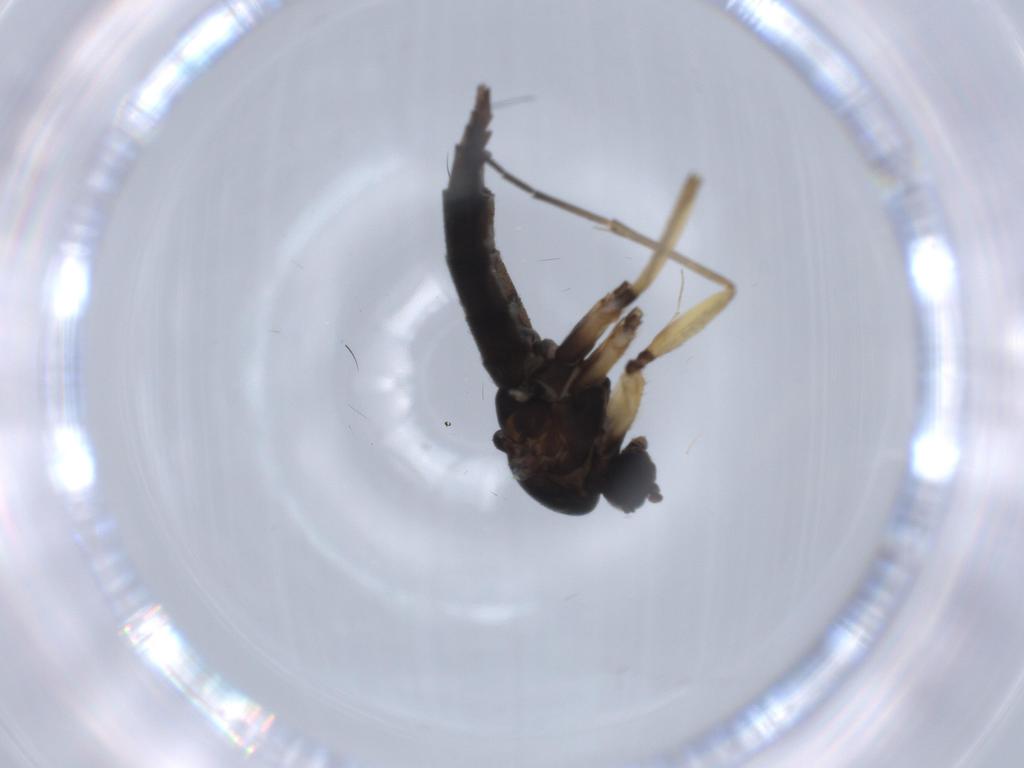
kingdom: Animalia
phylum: Arthropoda
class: Insecta
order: Diptera
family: Sciaridae
